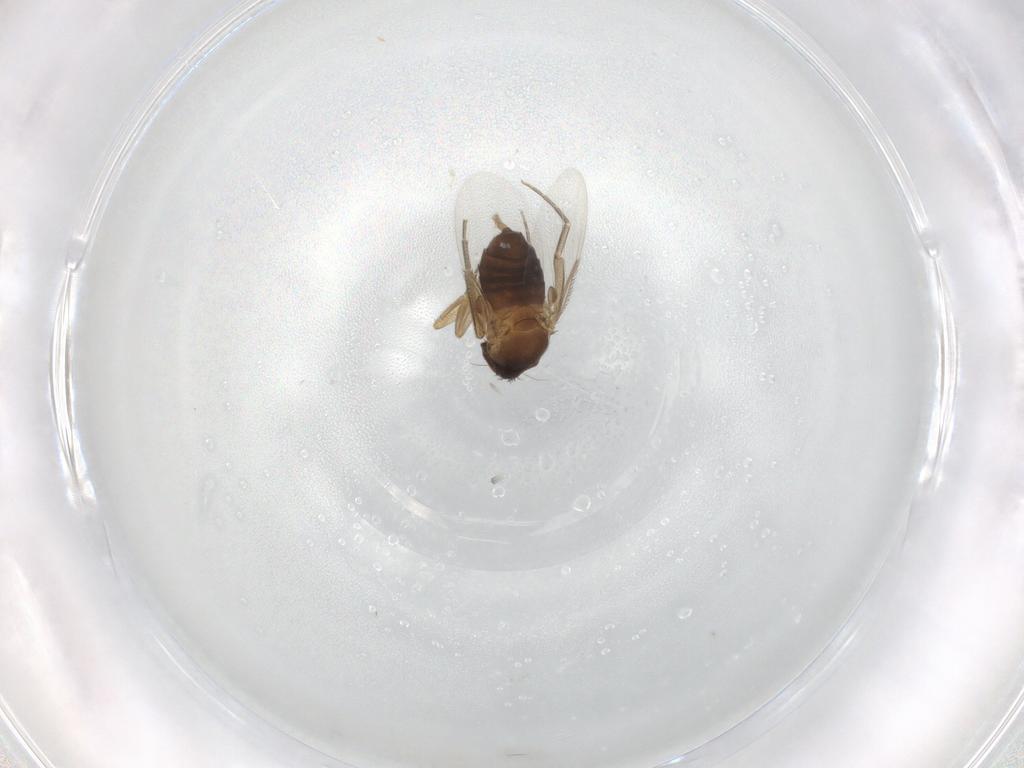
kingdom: Animalia
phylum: Arthropoda
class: Insecta
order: Diptera
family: Phoridae
